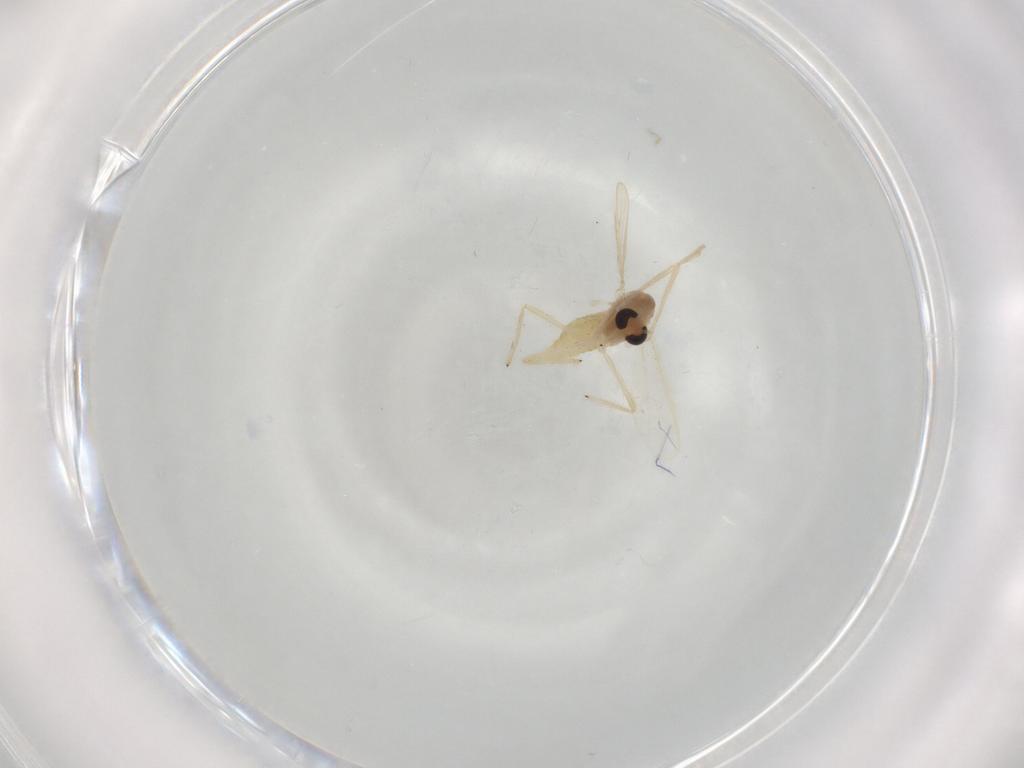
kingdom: Animalia
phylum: Arthropoda
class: Insecta
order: Diptera
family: Chironomidae
